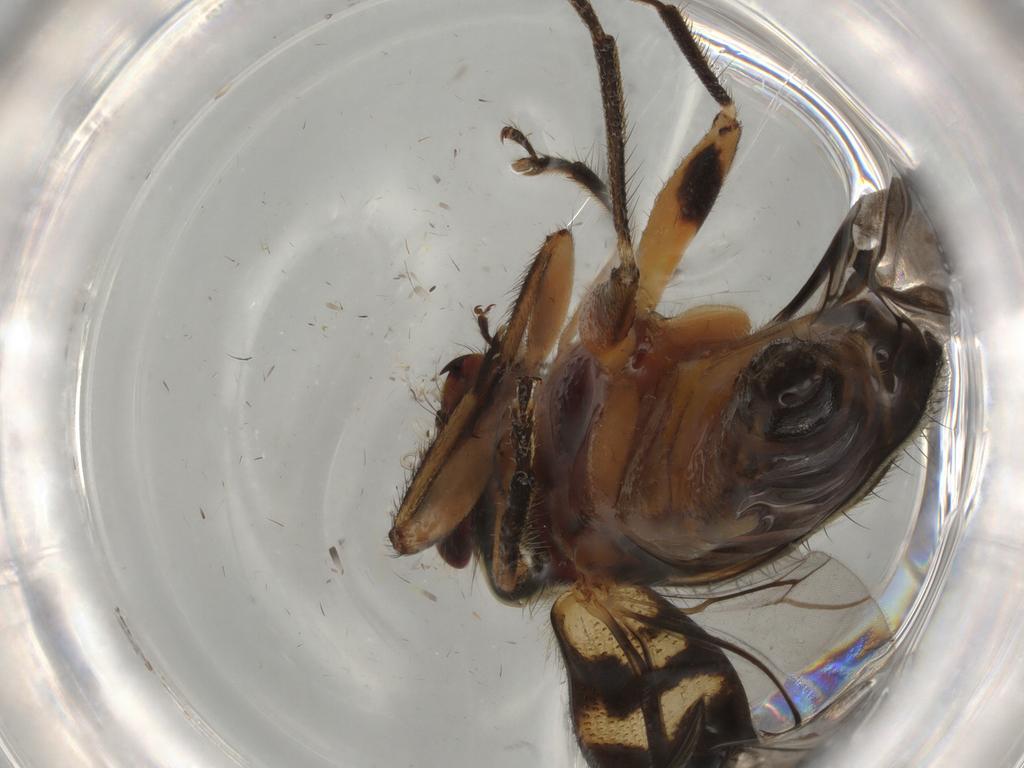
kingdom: Animalia
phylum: Arthropoda
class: Insecta
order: Coleoptera
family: Cleridae
